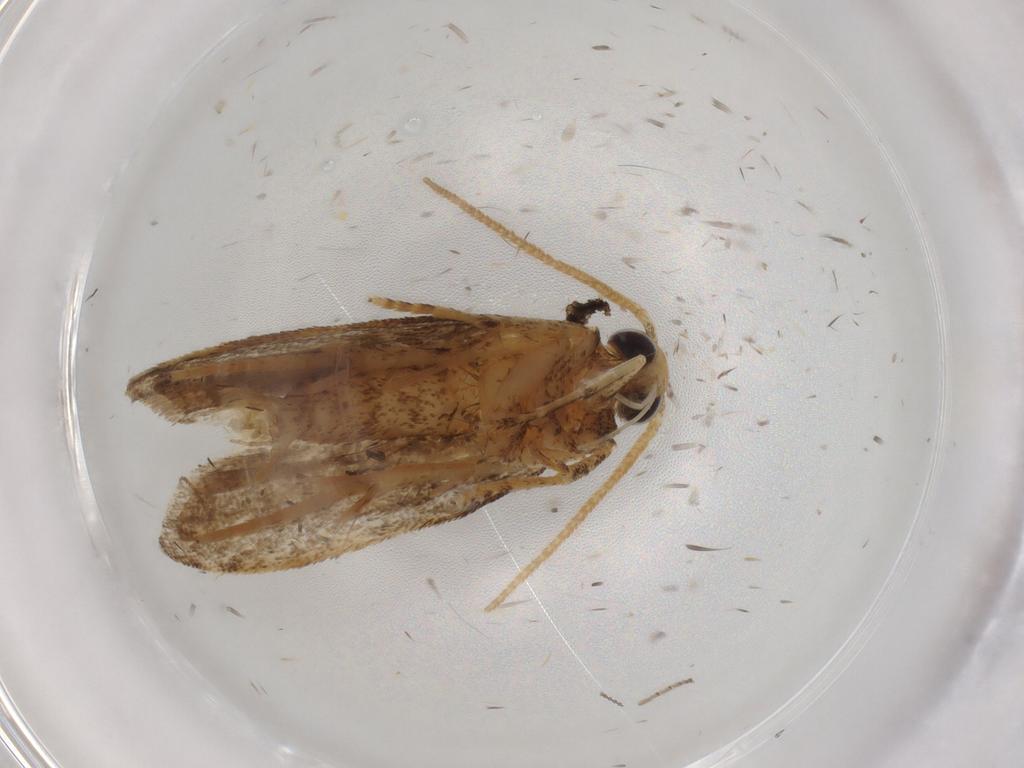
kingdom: Animalia
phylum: Arthropoda
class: Insecta
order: Lepidoptera
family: Autostichidae
